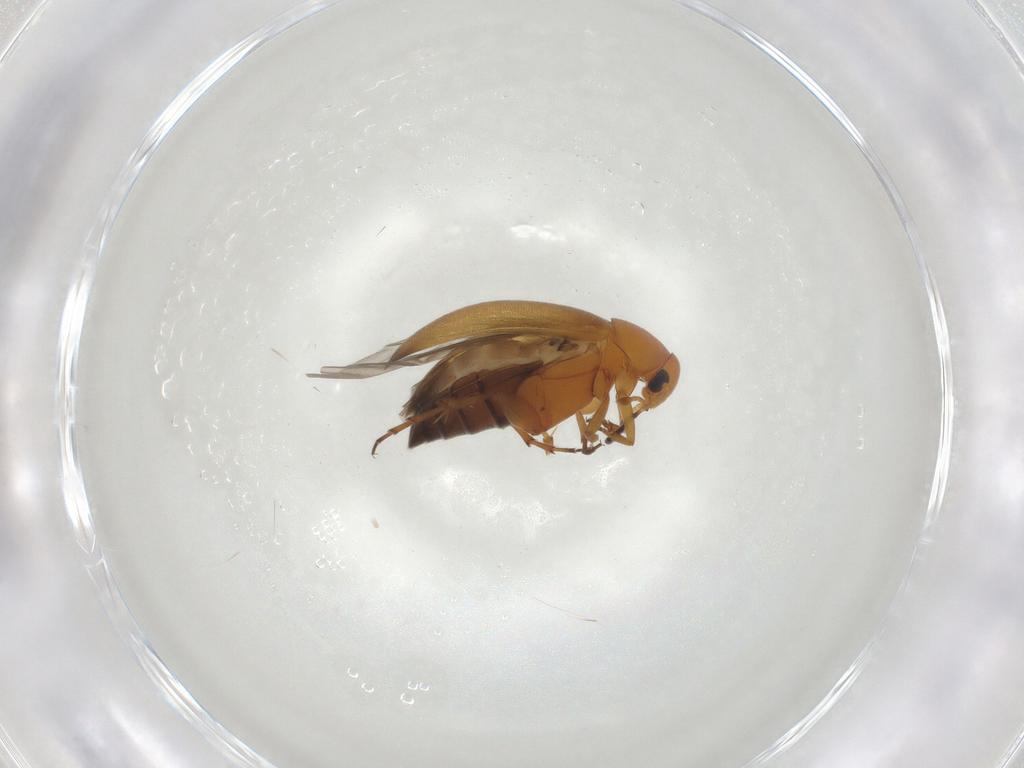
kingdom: Animalia
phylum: Arthropoda
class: Insecta
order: Coleoptera
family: Scraptiidae
